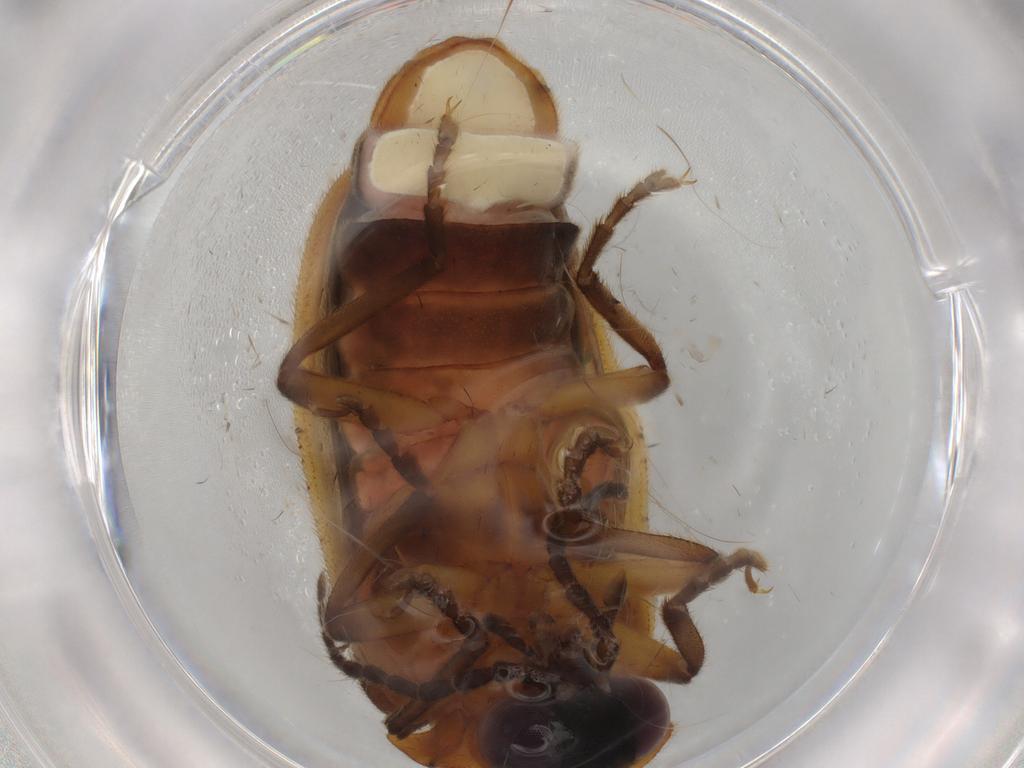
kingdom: Animalia
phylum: Arthropoda
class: Insecta
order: Coleoptera
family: Lampyridae
